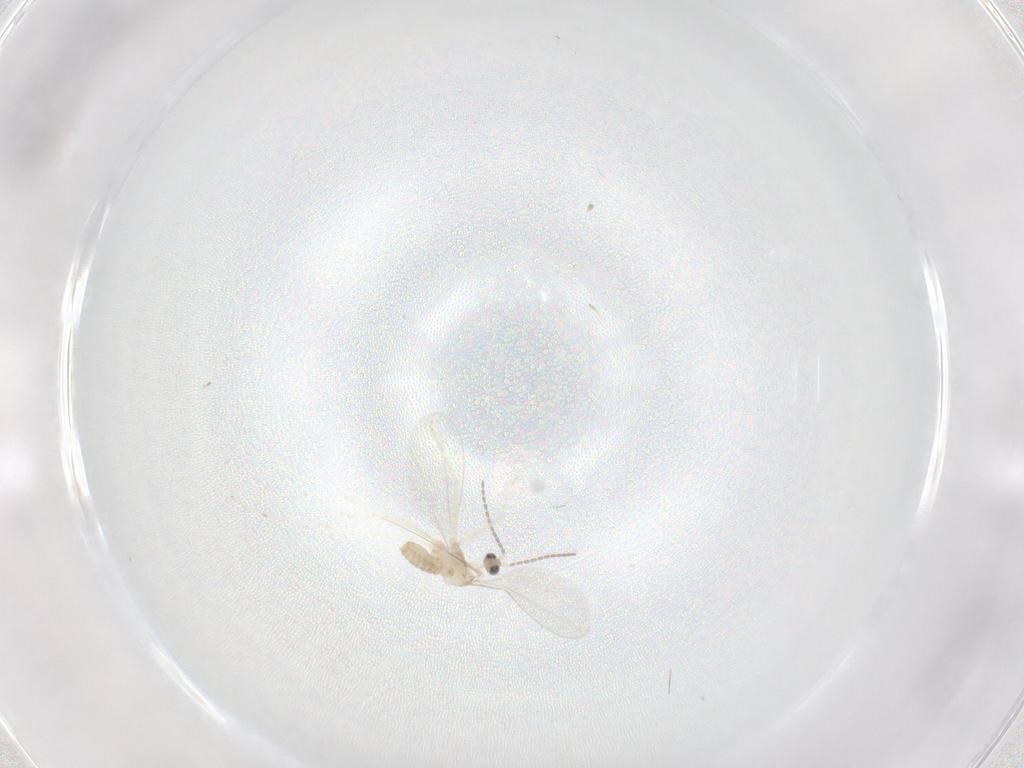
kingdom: Animalia
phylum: Arthropoda
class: Insecta
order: Diptera
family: Cecidomyiidae
